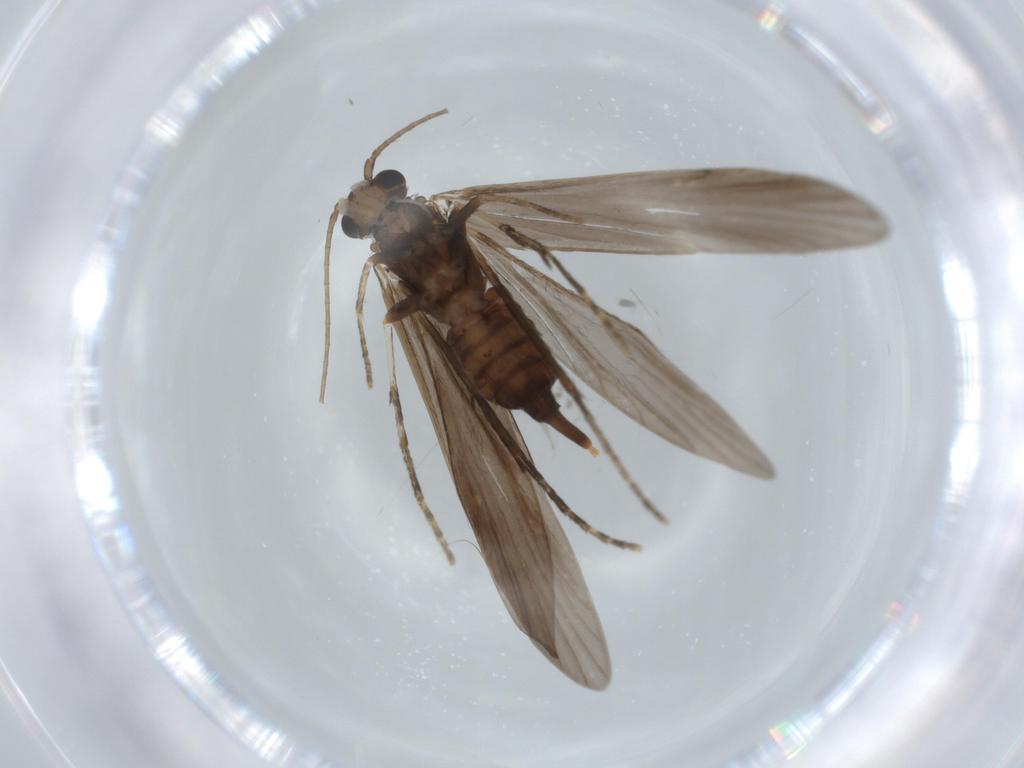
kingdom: Animalia
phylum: Arthropoda
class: Insecta
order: Trichoptera
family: Xiphocentronidae
